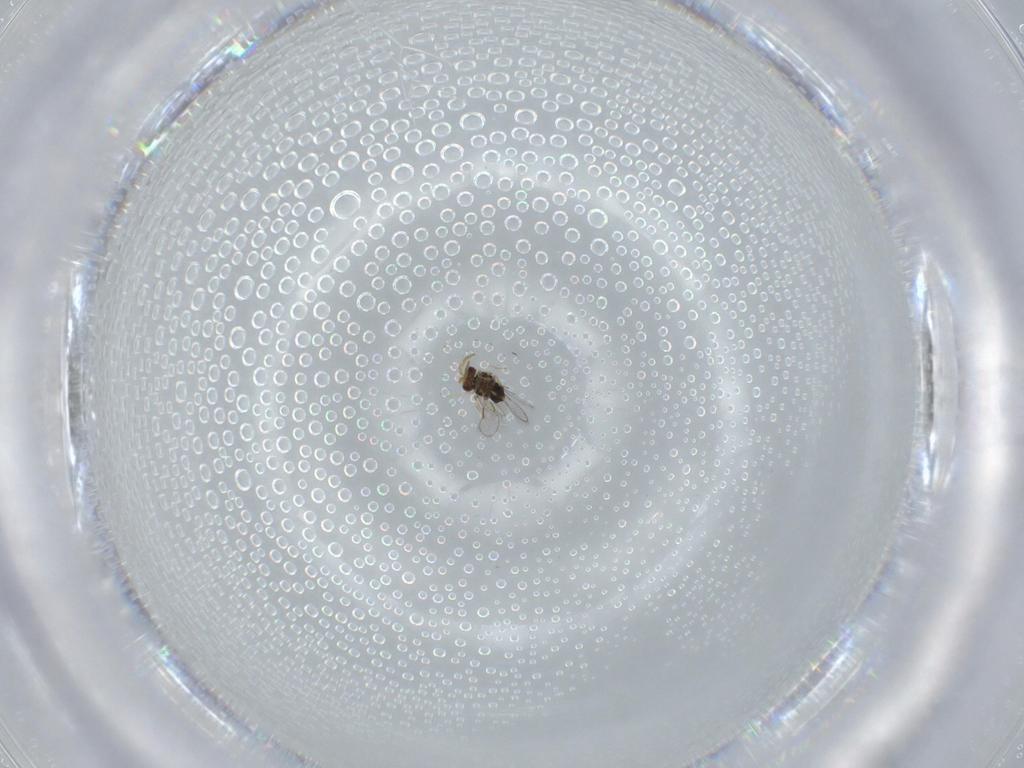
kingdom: Animalia
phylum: Arthropoda
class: Insecta
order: Hymenoptera
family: Scelionidae
